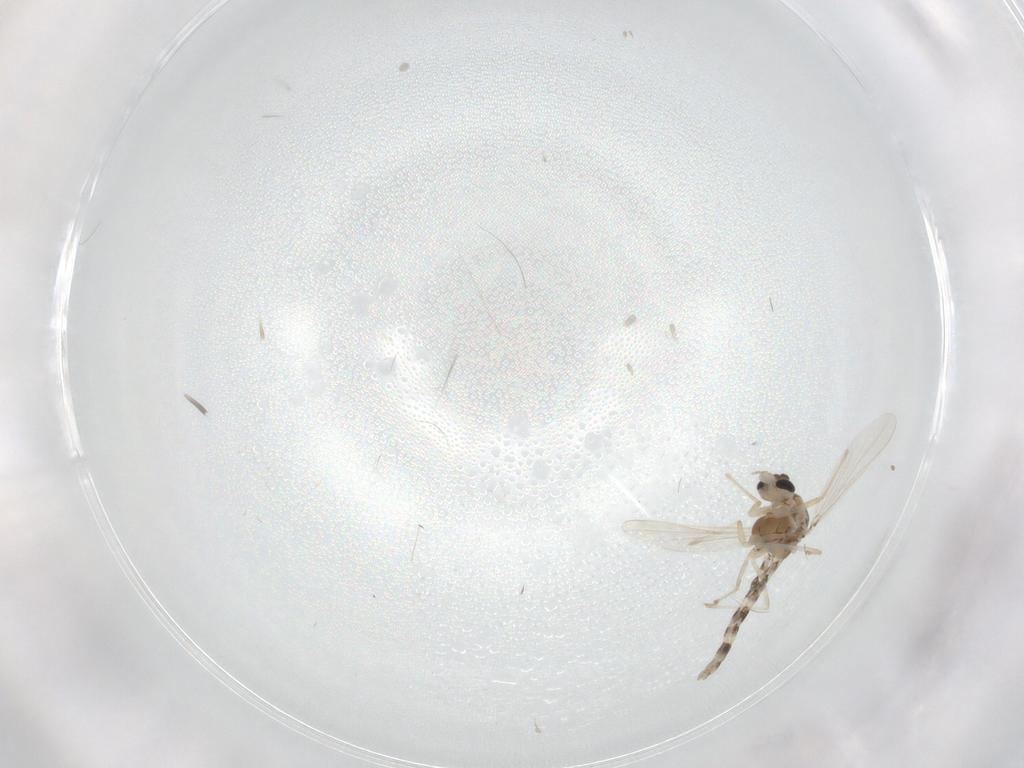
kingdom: Animalia
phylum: Arthropoda
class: Insecta
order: Diptera
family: Chironomidae
